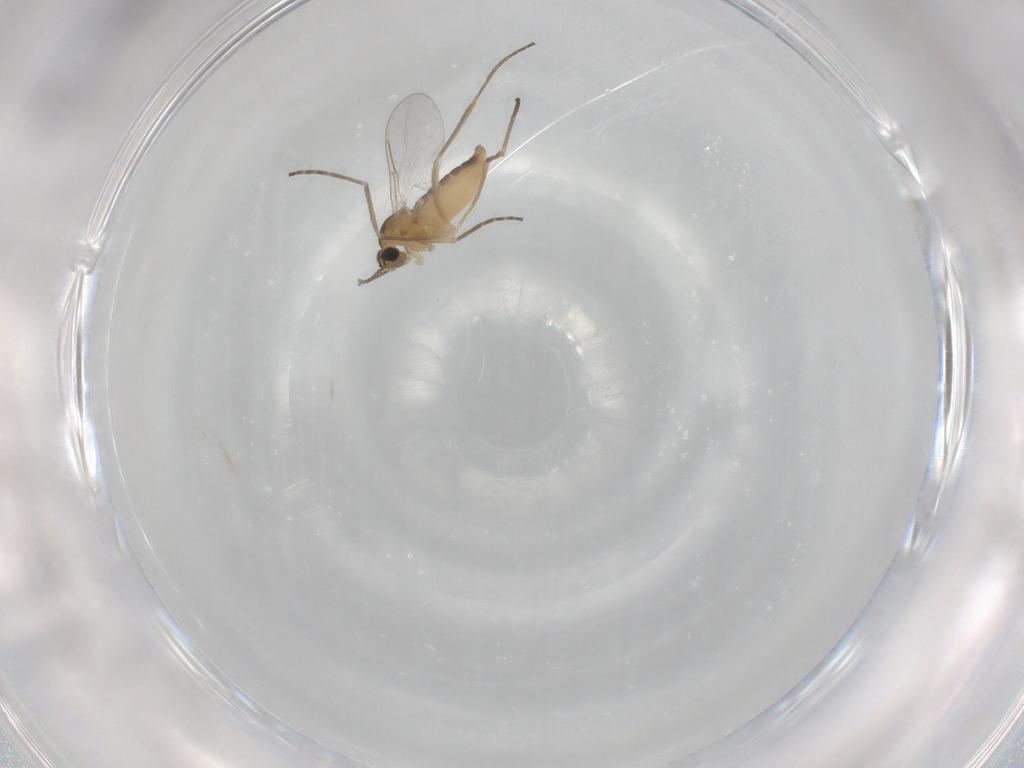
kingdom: Animalia
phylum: Arthropoda
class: Insecta
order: Diptera
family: Cecidomyiidae
